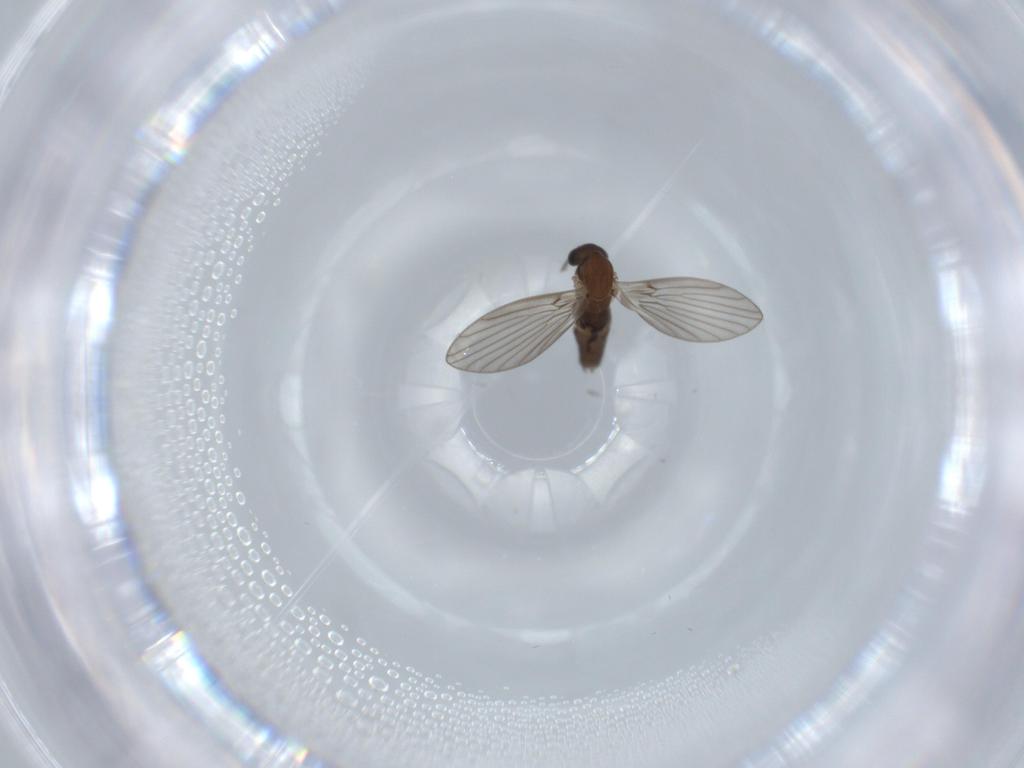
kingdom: Animalia
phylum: Arthropoda
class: Insecta
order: Diptera
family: Psychodidae
